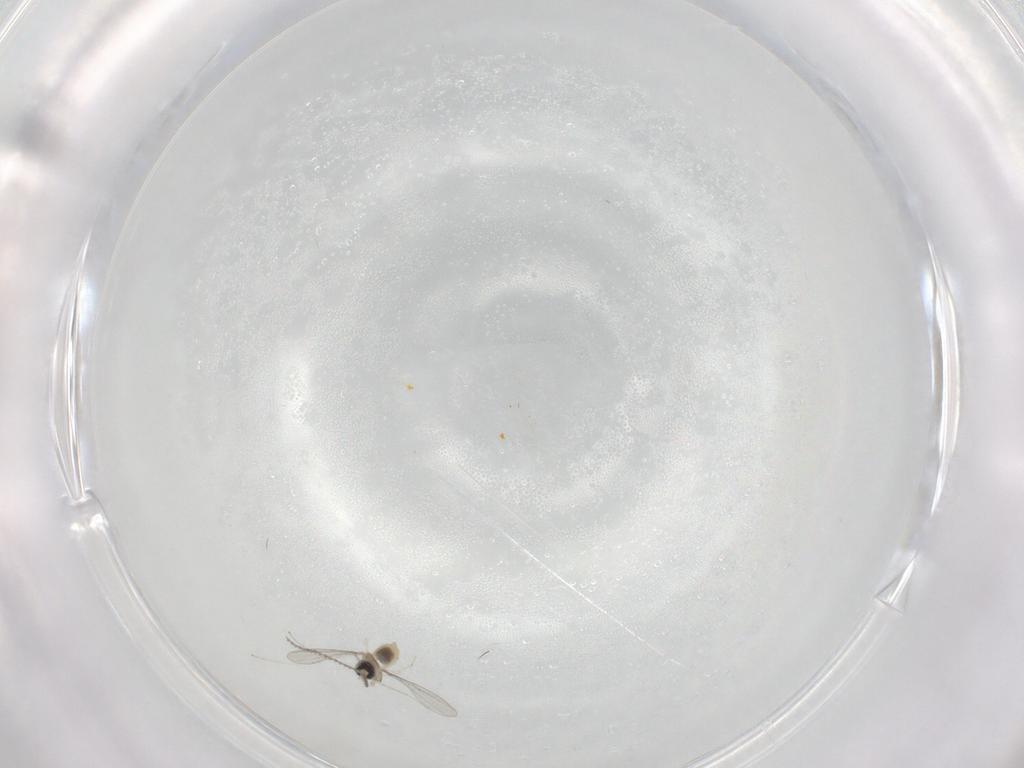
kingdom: Animalia
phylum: Arthropoda
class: Insecta
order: Diptera
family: Cecidomyiidae
